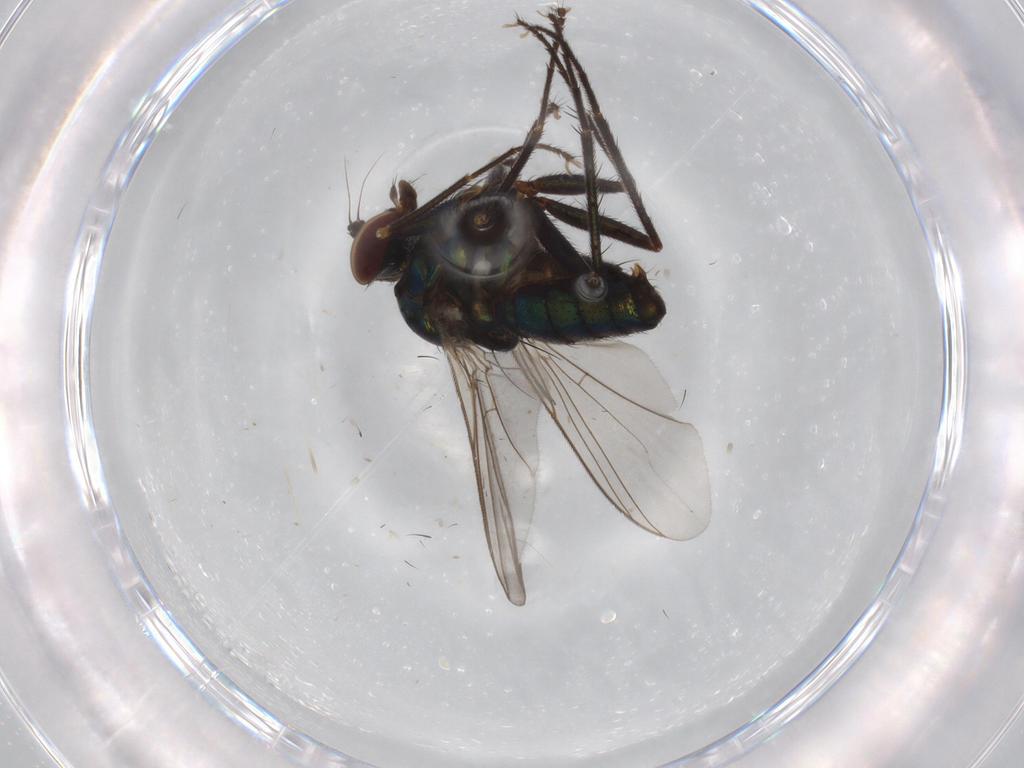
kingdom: Animalia
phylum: Arthropoda
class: Insecta
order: Diptera
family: Dolichopodidae
